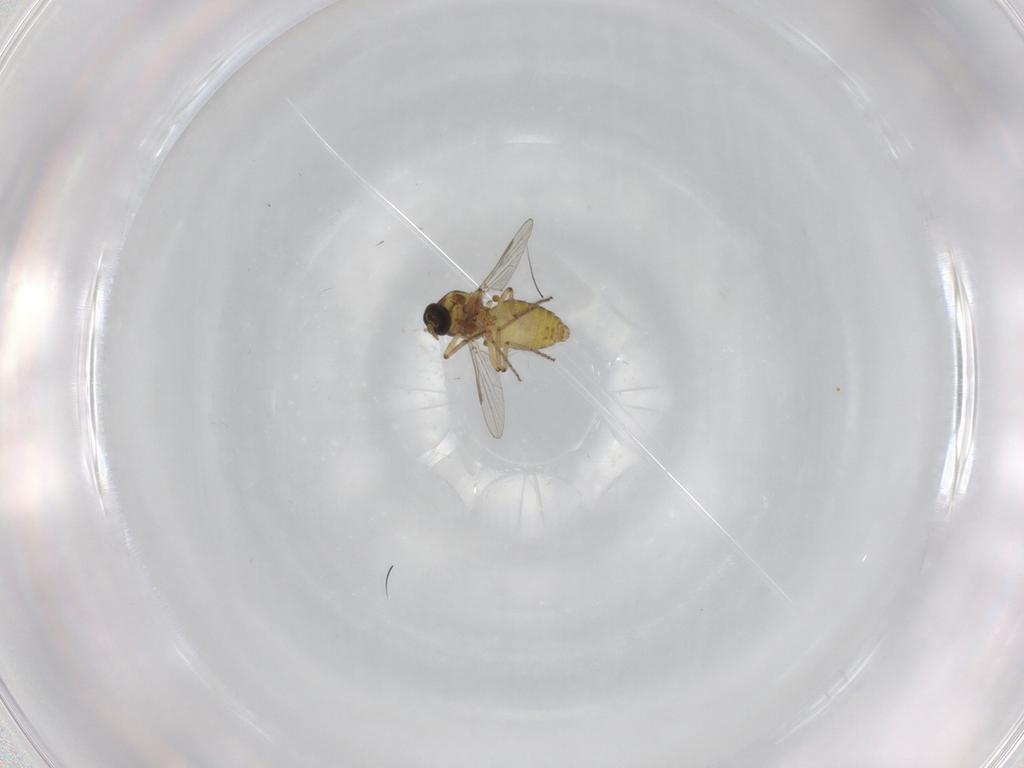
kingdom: Animalia
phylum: Arthropoda
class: Insecta
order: Diptera
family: Ceratopogonidae
